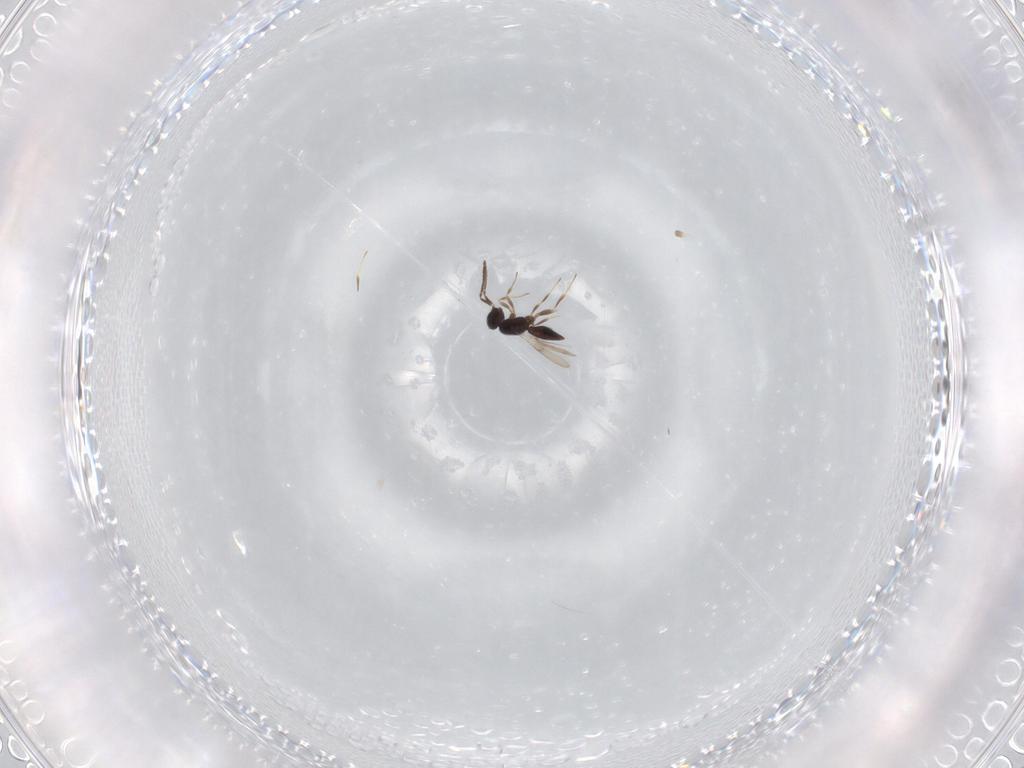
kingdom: Animalia
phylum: Arthropoda
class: Insecta
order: Hymenoptera
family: Scelionidae
